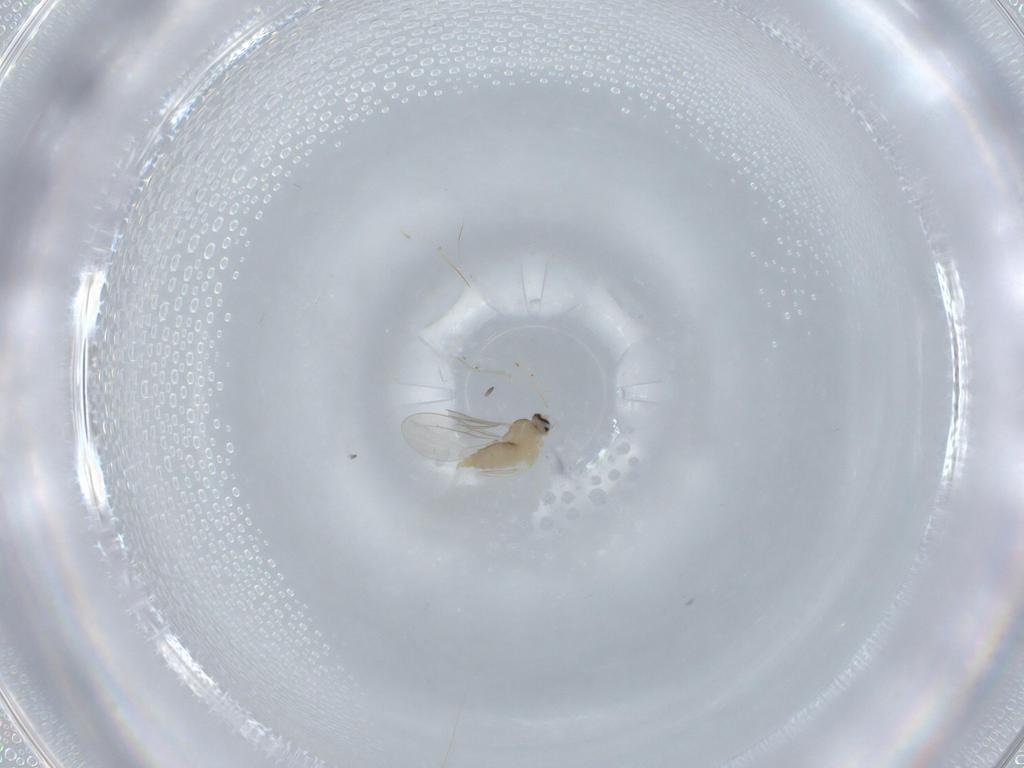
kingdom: Animalia
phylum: Arthropoda
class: Insecta
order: Diptera
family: Cecidomyiidae
